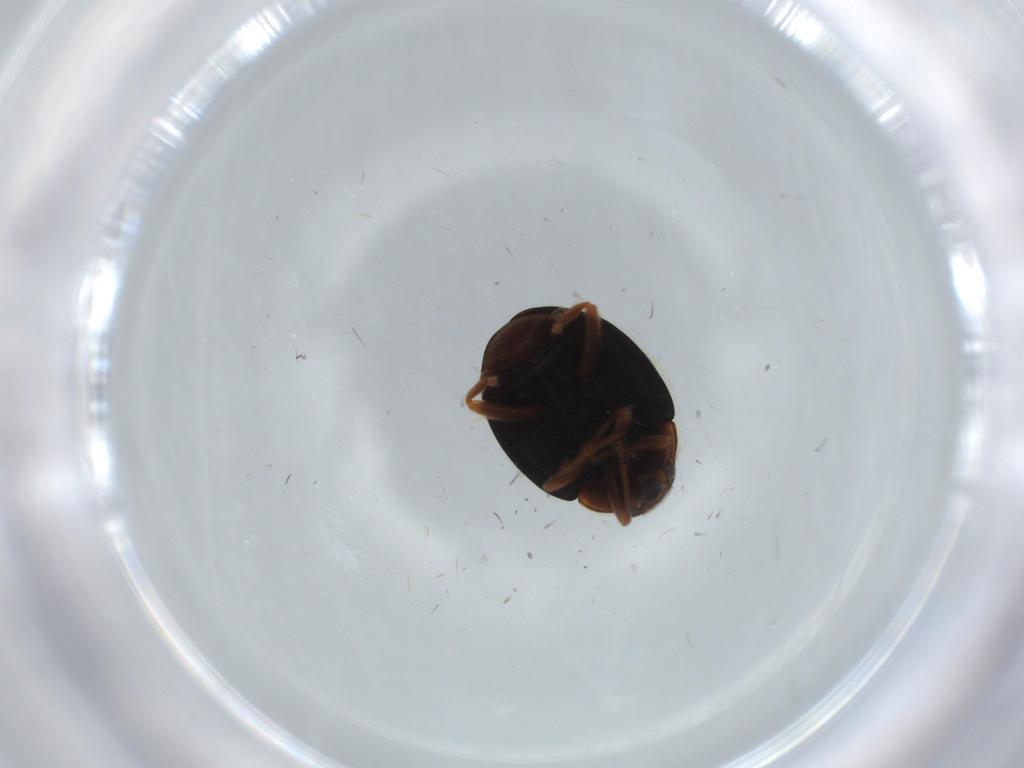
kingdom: Animalia
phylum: Arthropoda
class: Insecta
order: Coleoptera
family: Coccinellidae
